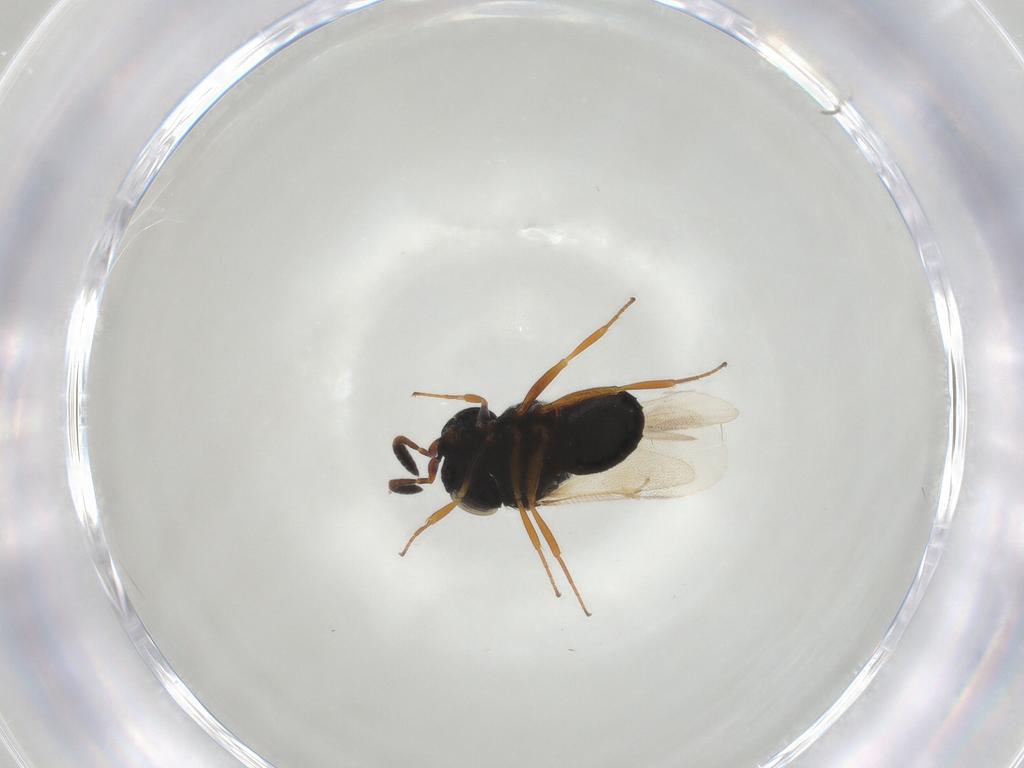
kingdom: Animalia
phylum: Arthropoda
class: Insecta
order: Hymenoptera
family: Scelionidae
